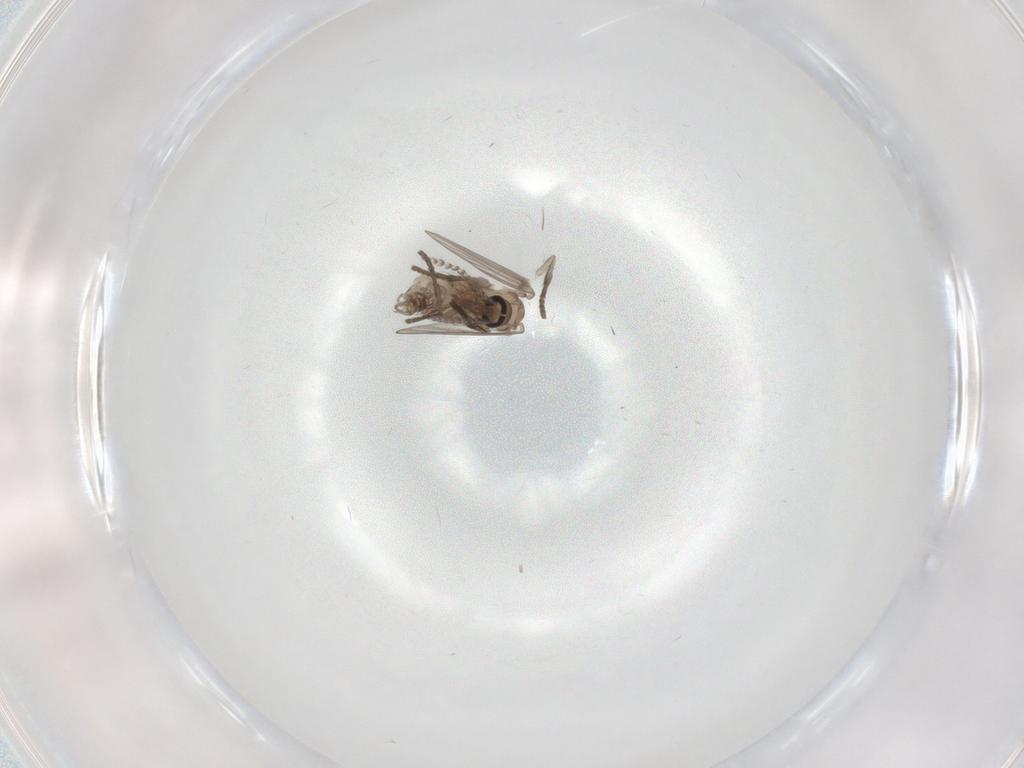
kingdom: Animalia
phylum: Arthropoda
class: Insecta
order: Diptera
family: Psychodidae
